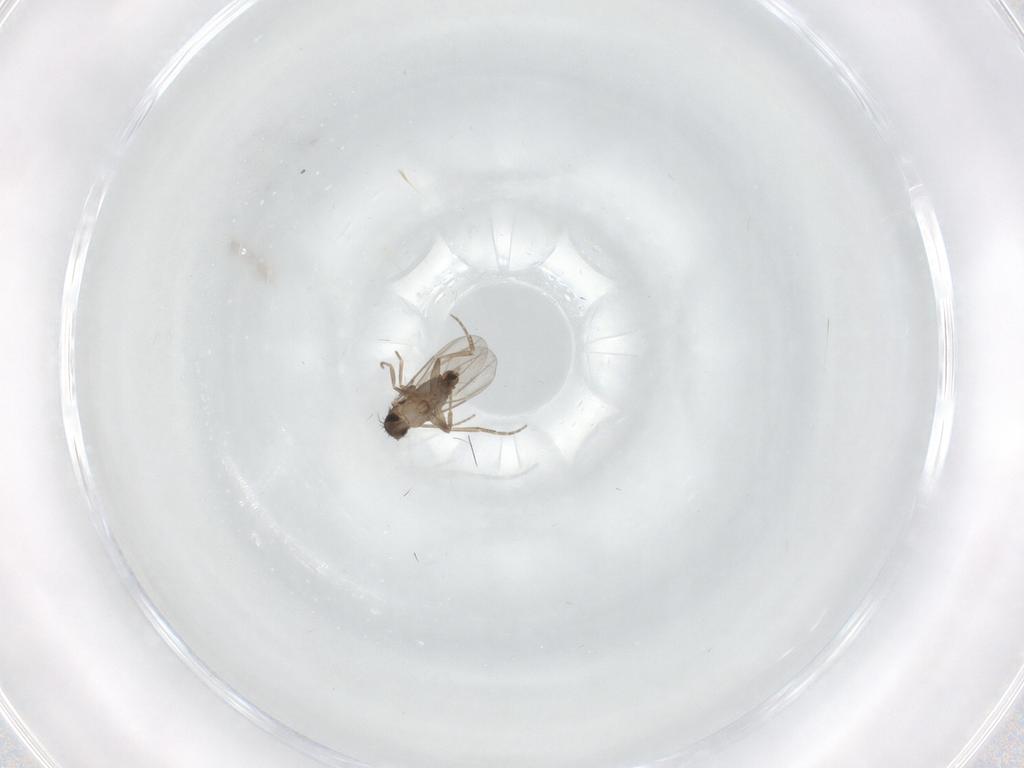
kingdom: Animalia
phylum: Arthropoda
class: Insecta
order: Diptera
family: Phoridae
